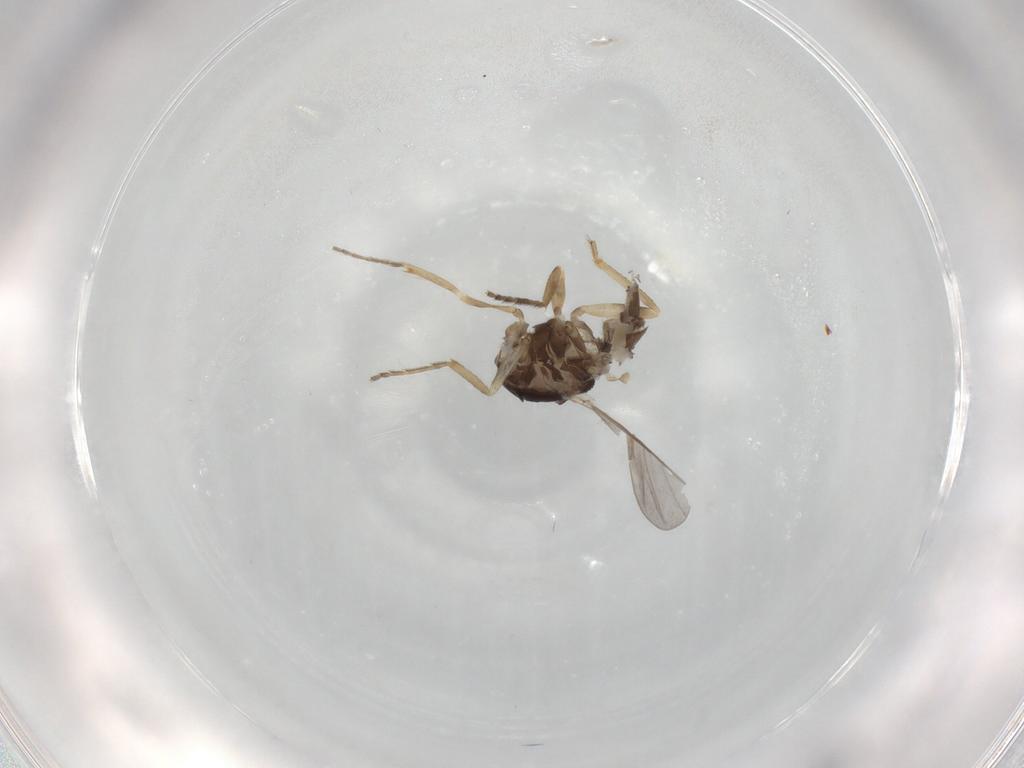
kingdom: Animalia
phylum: Arthropoda
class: Insecta
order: Diptera
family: Ceratopogonidae
